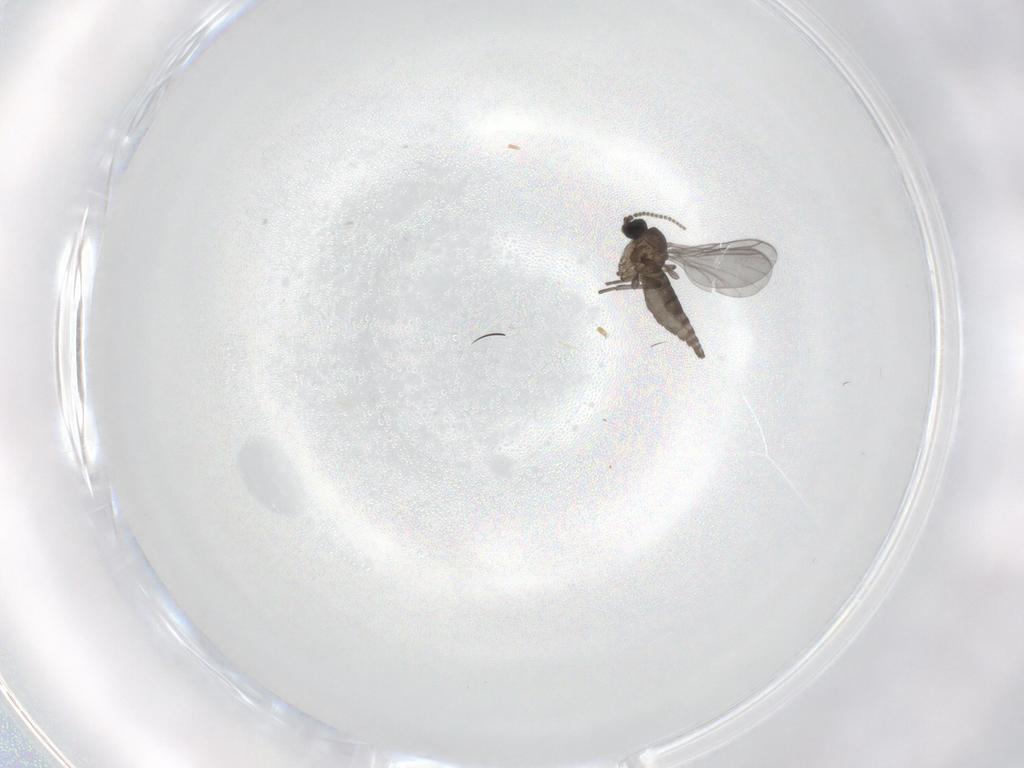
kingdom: Animalia
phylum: Arthropoda
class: Insecta
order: Diptera
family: Sciaridae
